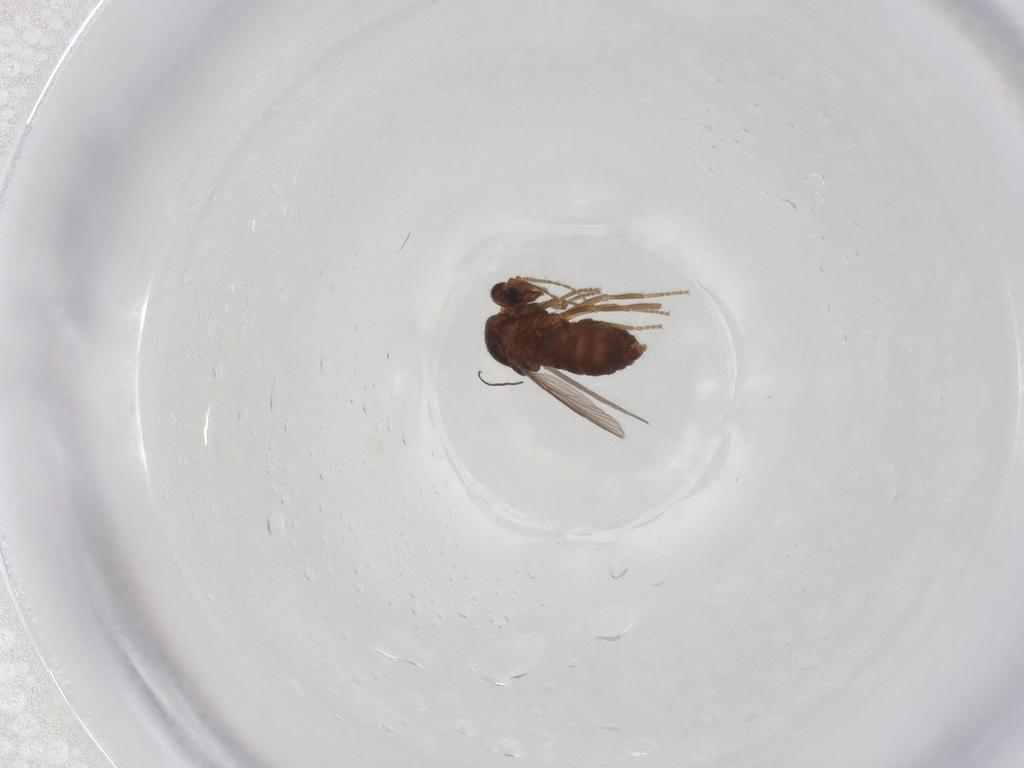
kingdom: Animalia
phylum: Arthropoda
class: Insecta
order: Diptera
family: Ceratopogonidae
